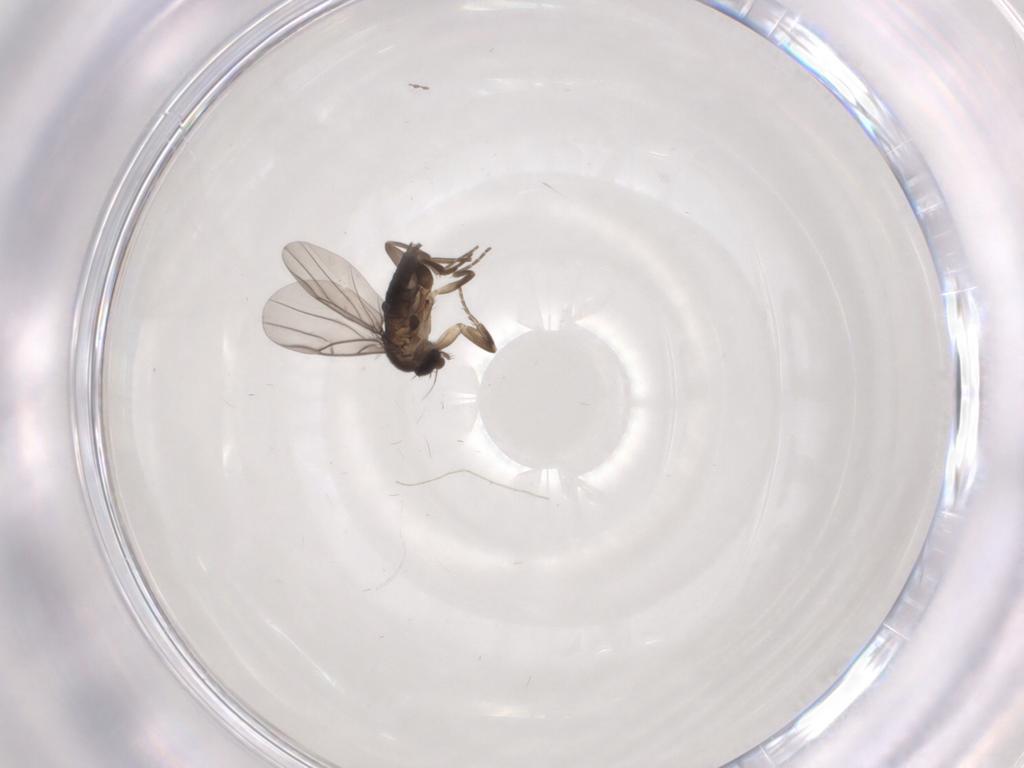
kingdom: Animalia
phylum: Arthropoda
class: Insecta
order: Diptera
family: Phoridae
